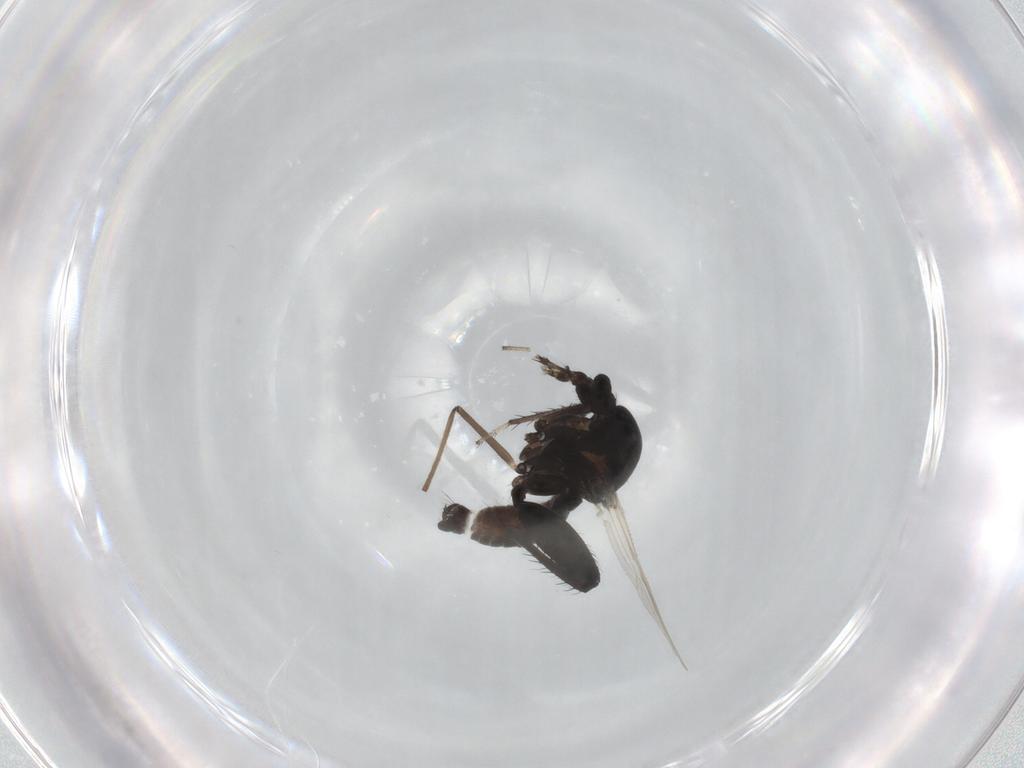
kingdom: Animalia
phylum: Arthropoda
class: Insecta
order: Diptera
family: Ceratopogonidae
